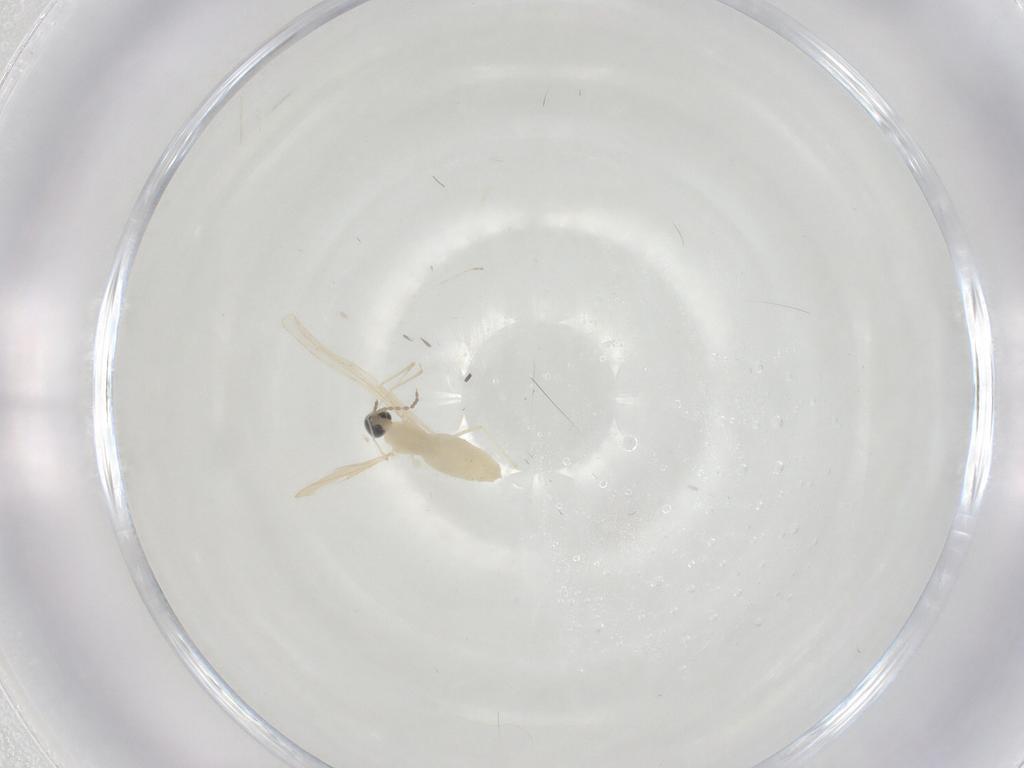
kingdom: Animalia
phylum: Arthropoda
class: Insecta
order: Diptera
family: Cecidomyiidae
